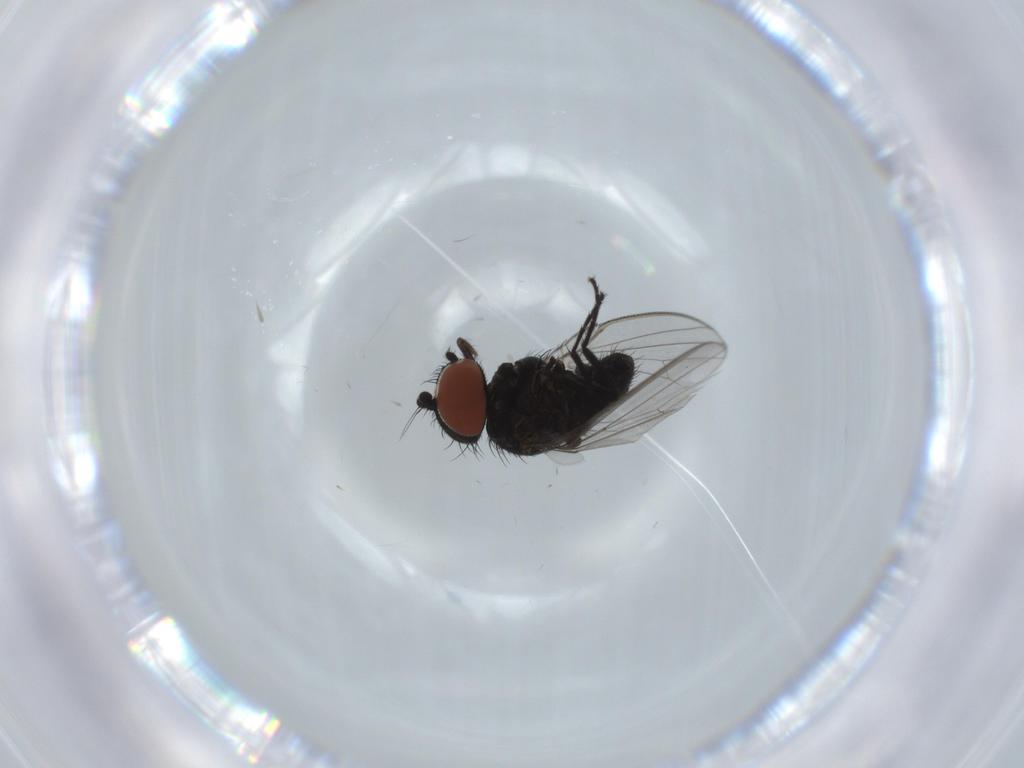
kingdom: Animalia
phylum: Arthropoda
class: Insecta
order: Diptera
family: Milichiidae
